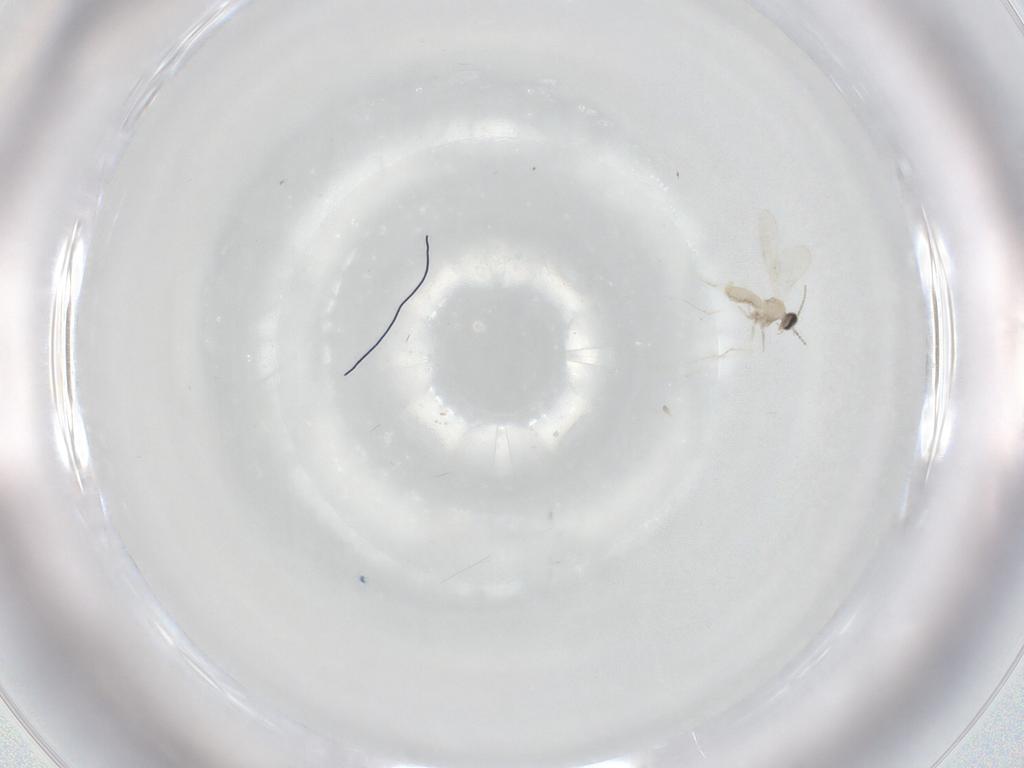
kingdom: Animalia
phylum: Arthropoda
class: Insecta
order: Diptera
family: Cecidomyiidae
